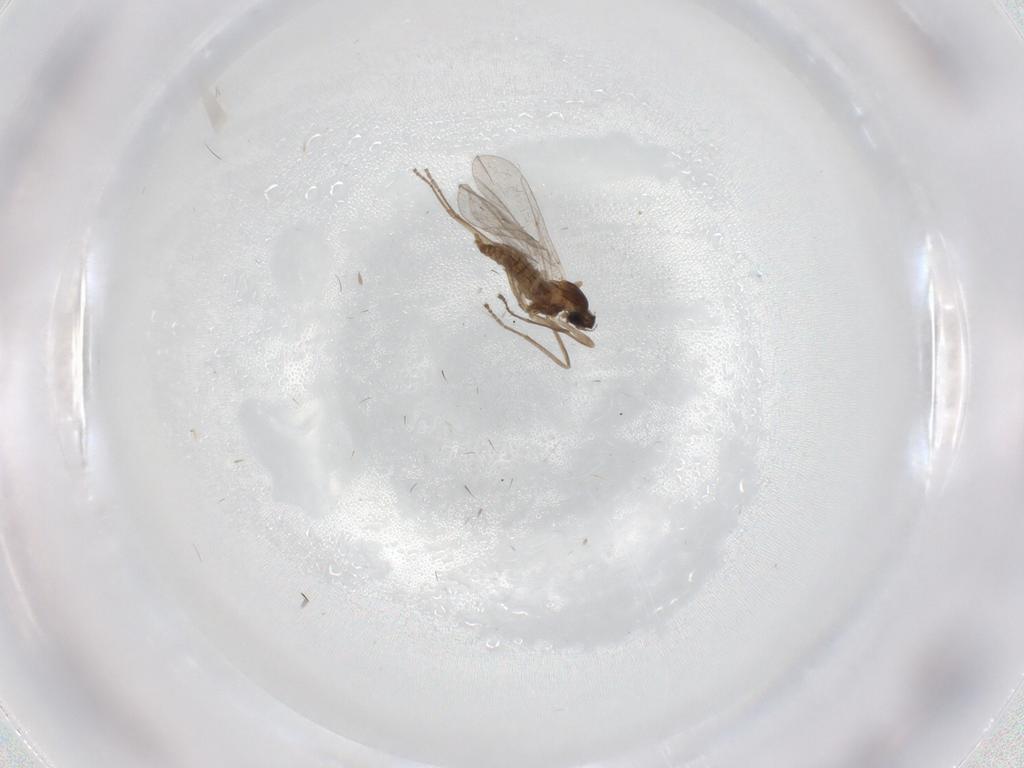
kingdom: Animalia
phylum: Arthropoda
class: Insecta
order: Diptera
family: Cecidomyiidae
